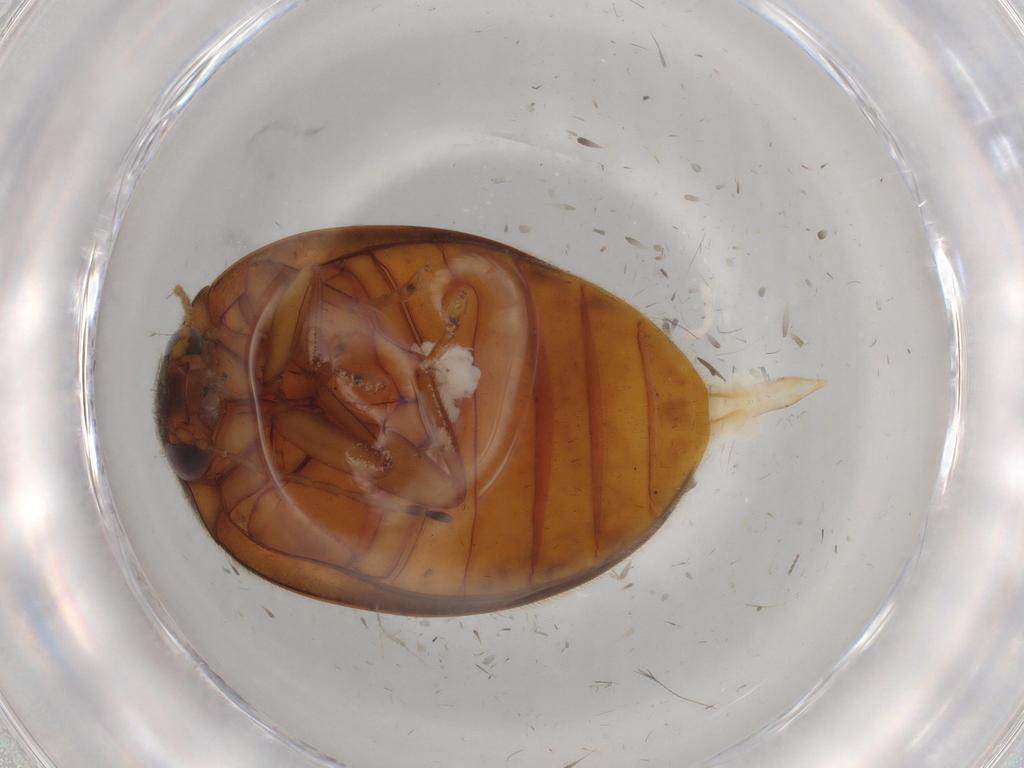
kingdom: Animalia
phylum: Arthropoda
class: Insecta
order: Coleoptera
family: Scirtidae
